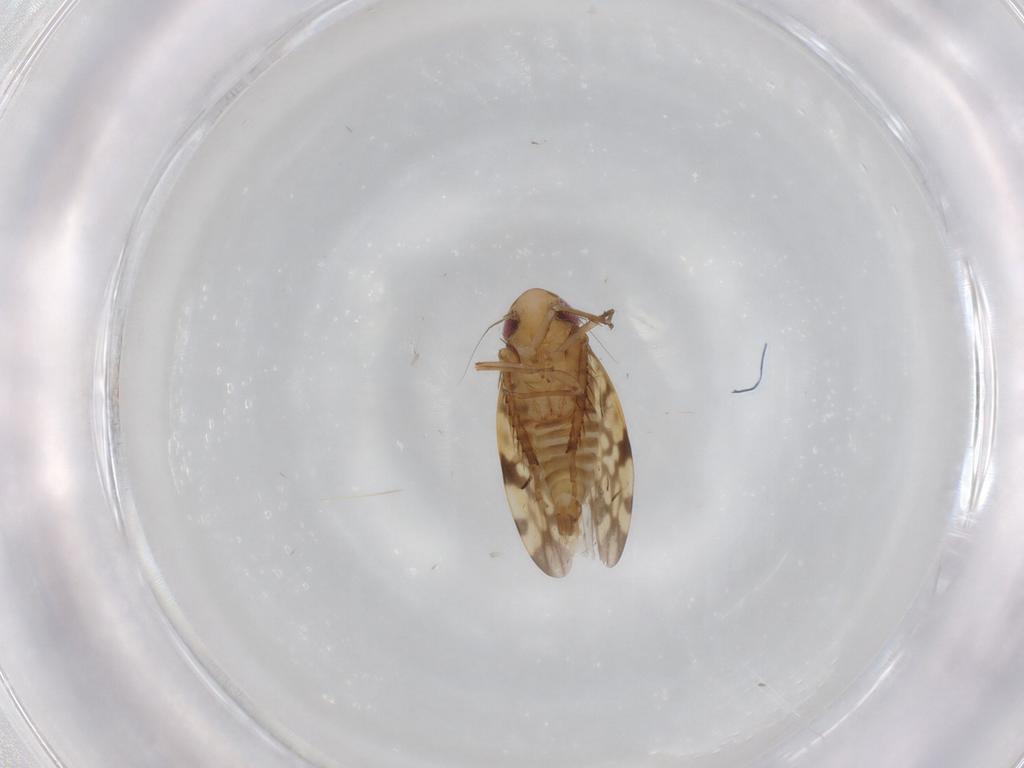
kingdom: Animalia
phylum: Arthropoda
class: Insecta
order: Hemiptera
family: Cicadellidae
